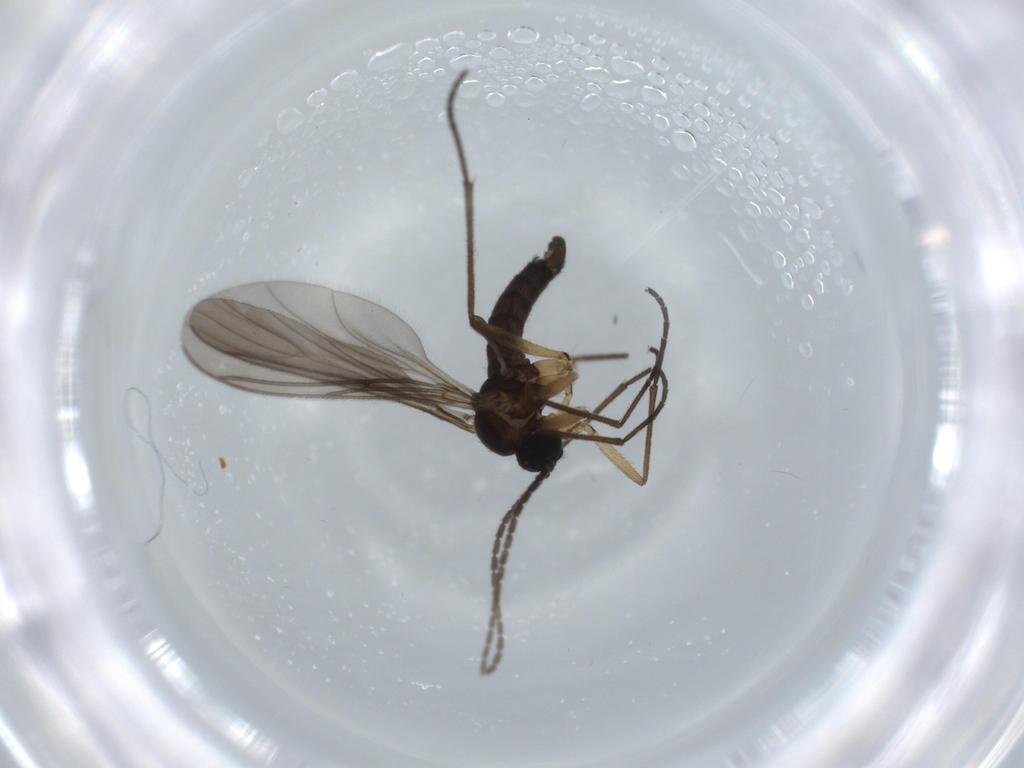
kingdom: Animalia
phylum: Arthropoda
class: Insecta
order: Diptera
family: Sciaridae
